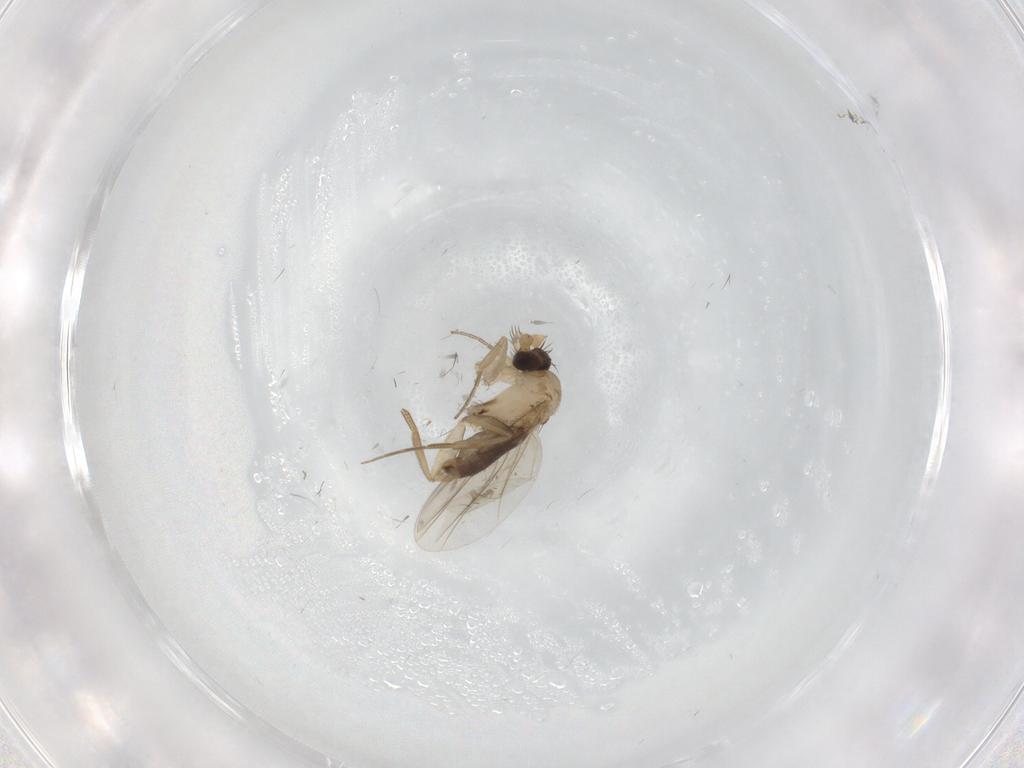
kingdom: Animalia
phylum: Arthropoda
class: Insecta
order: Diptera
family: Phoridae
